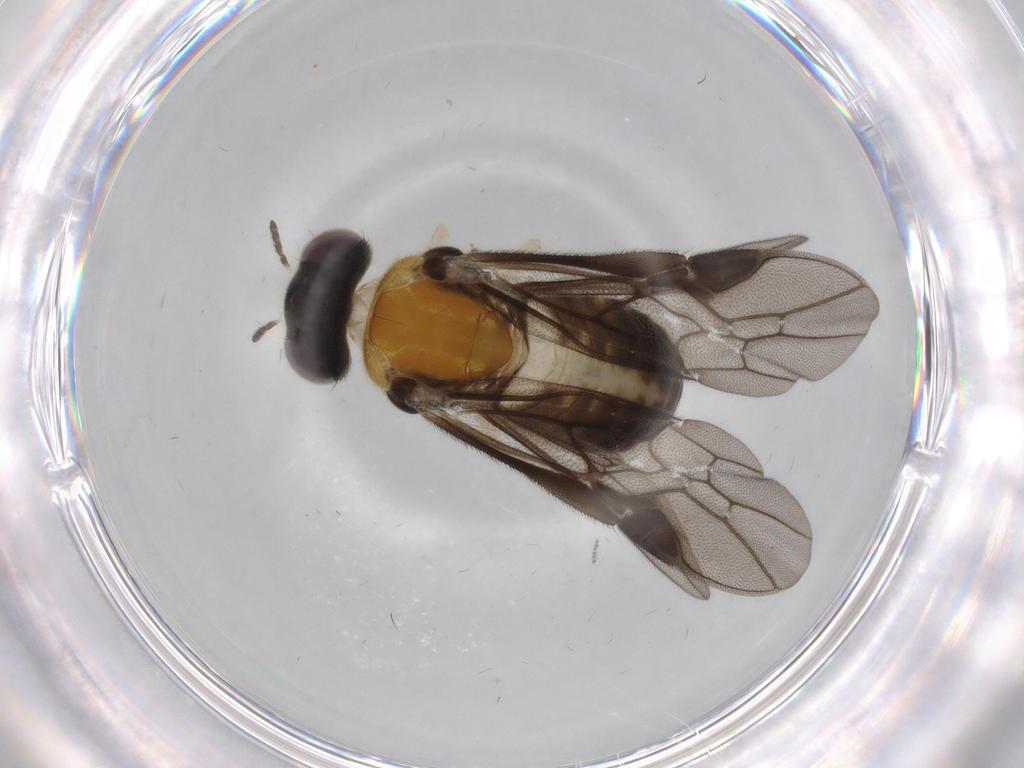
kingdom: Animalia
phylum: Arthropoda
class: Insecta
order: Diptera
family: Cecidomyiidae
